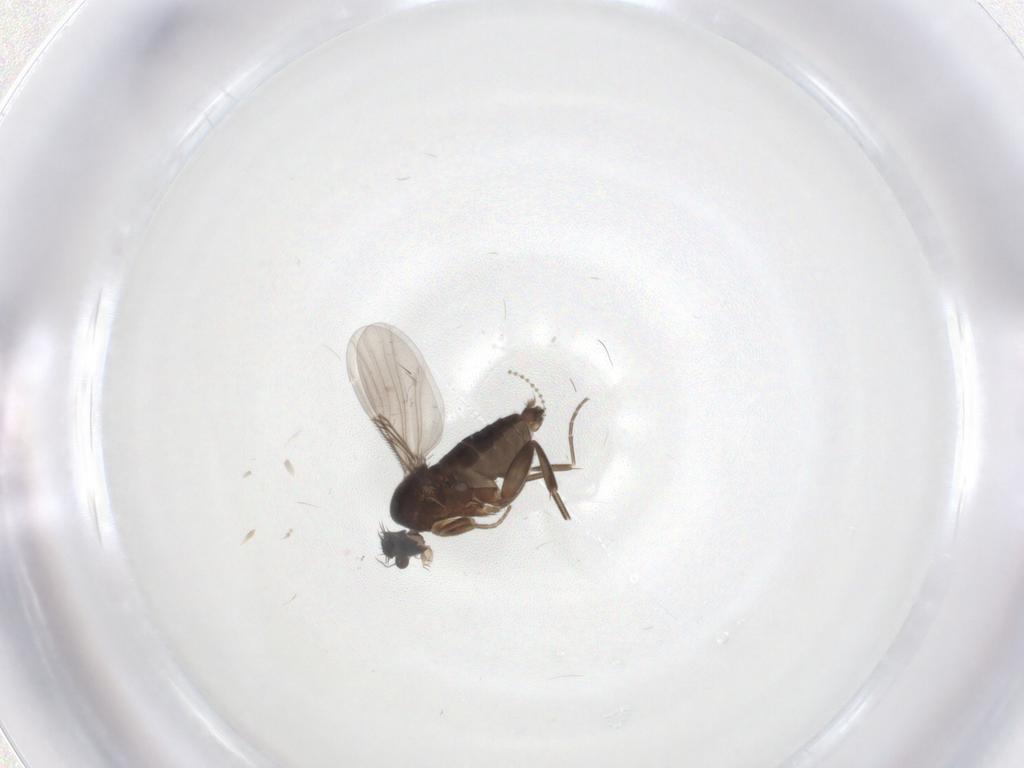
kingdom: Animalia
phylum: Arthropoda
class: Insecta
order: Diptera
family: Phoridae
